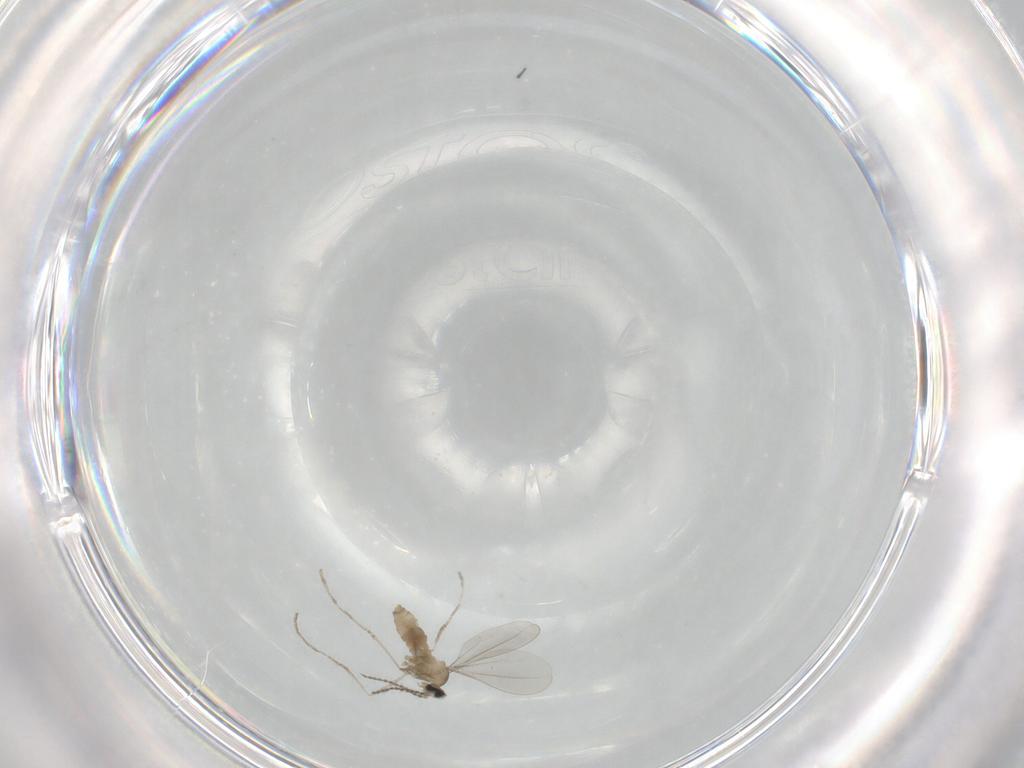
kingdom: Animalia
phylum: Arthropoda
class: Insecta
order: Diptera
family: Cecidomyiidae
